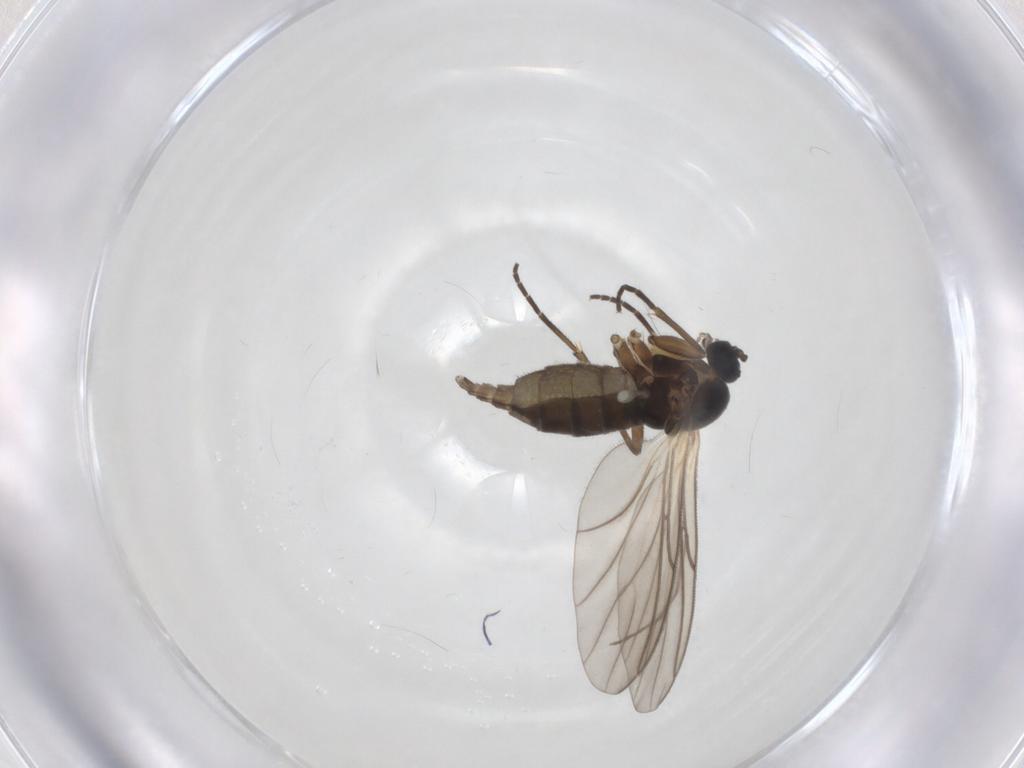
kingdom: Animalia
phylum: Arthropoda
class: Insecta
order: Diptera
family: Chironomidae
